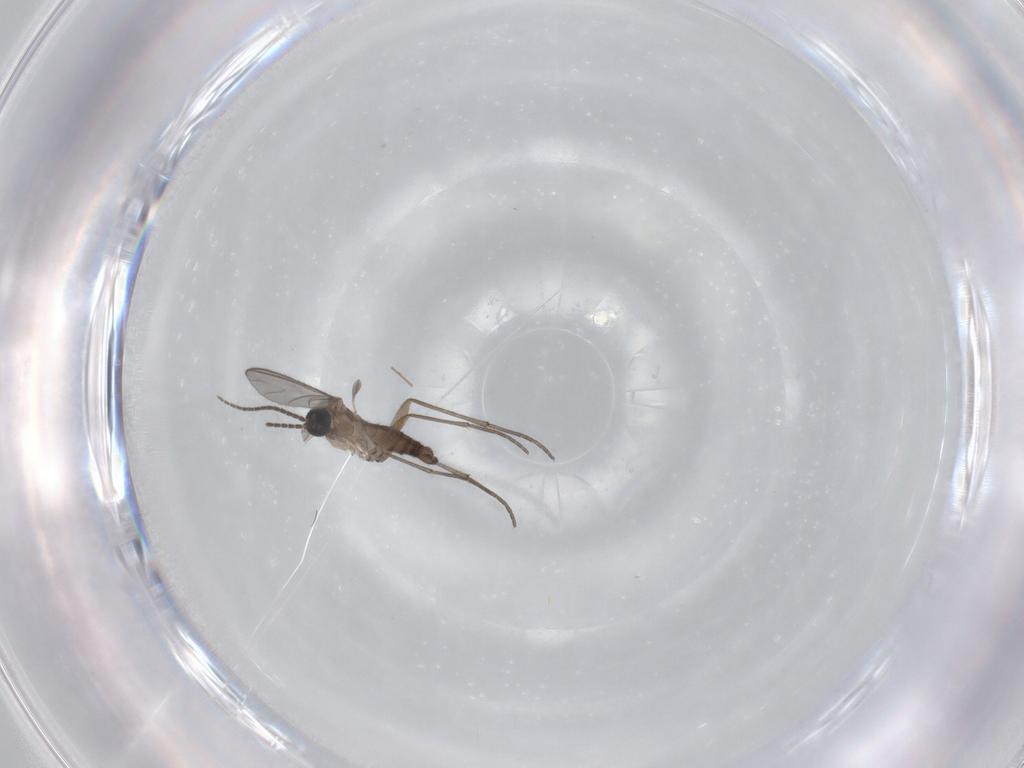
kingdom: Animalia
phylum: Arthropoda
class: Insecta
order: Diptera
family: Sciaridae
